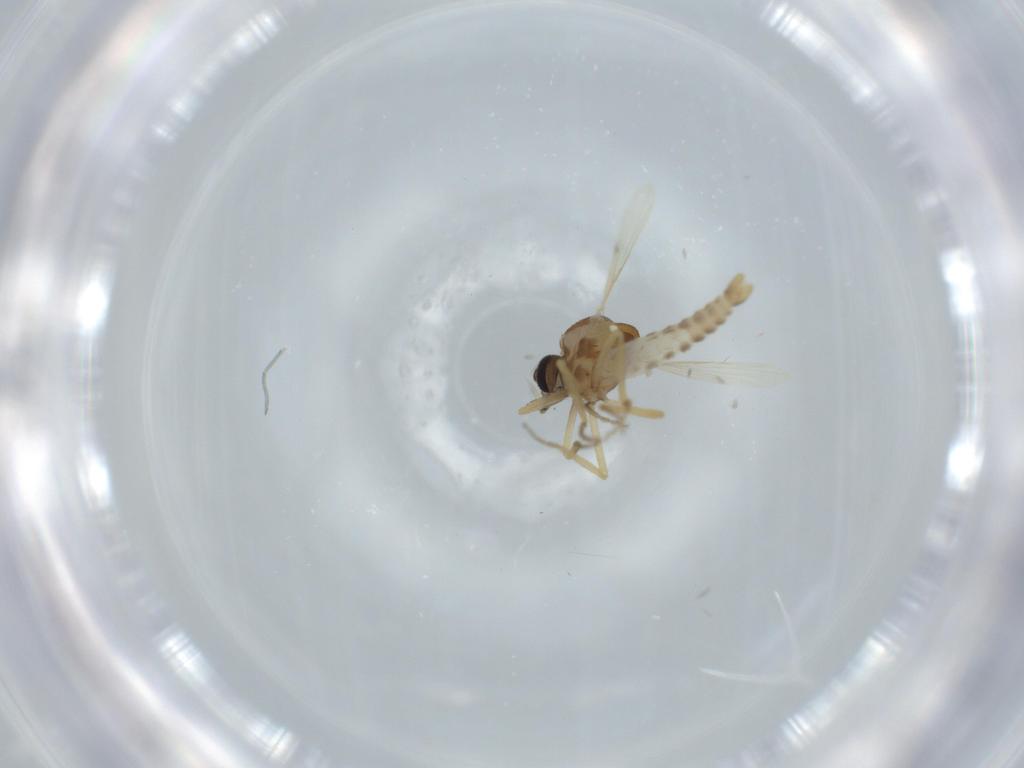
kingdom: Animalia
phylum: Arthropoda
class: Insecta
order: Diptera
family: Ceratopogonidae
